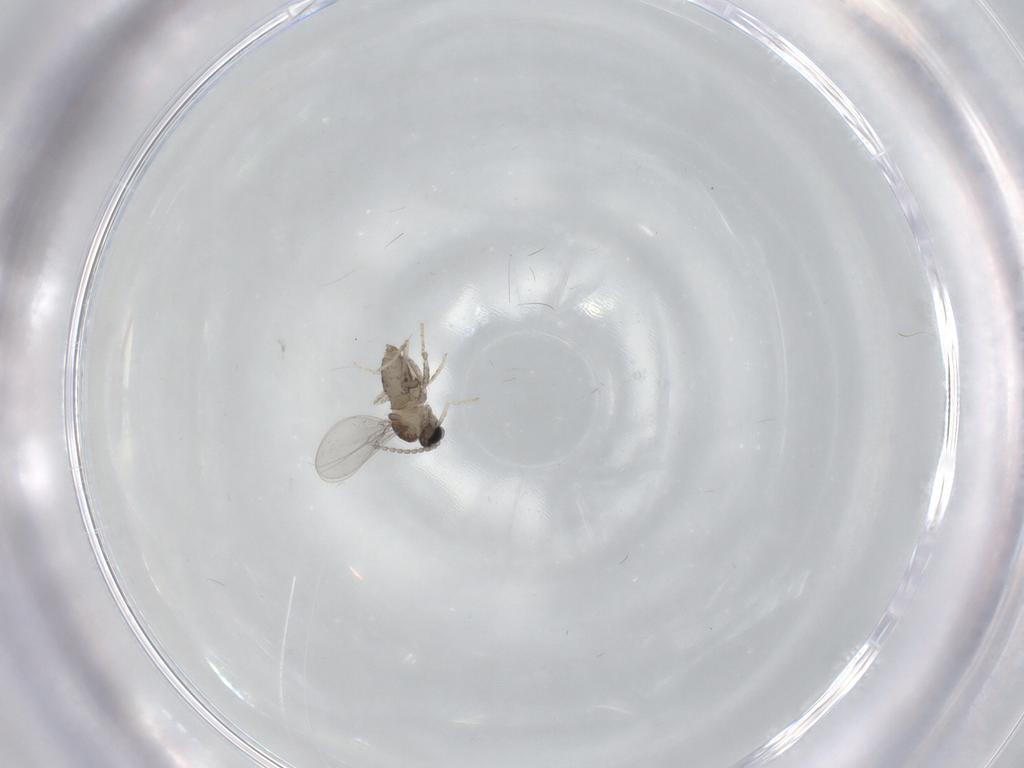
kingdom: Animalia
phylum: Arthropoda
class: Insecta
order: Diptera
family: Cecidomyiidae
